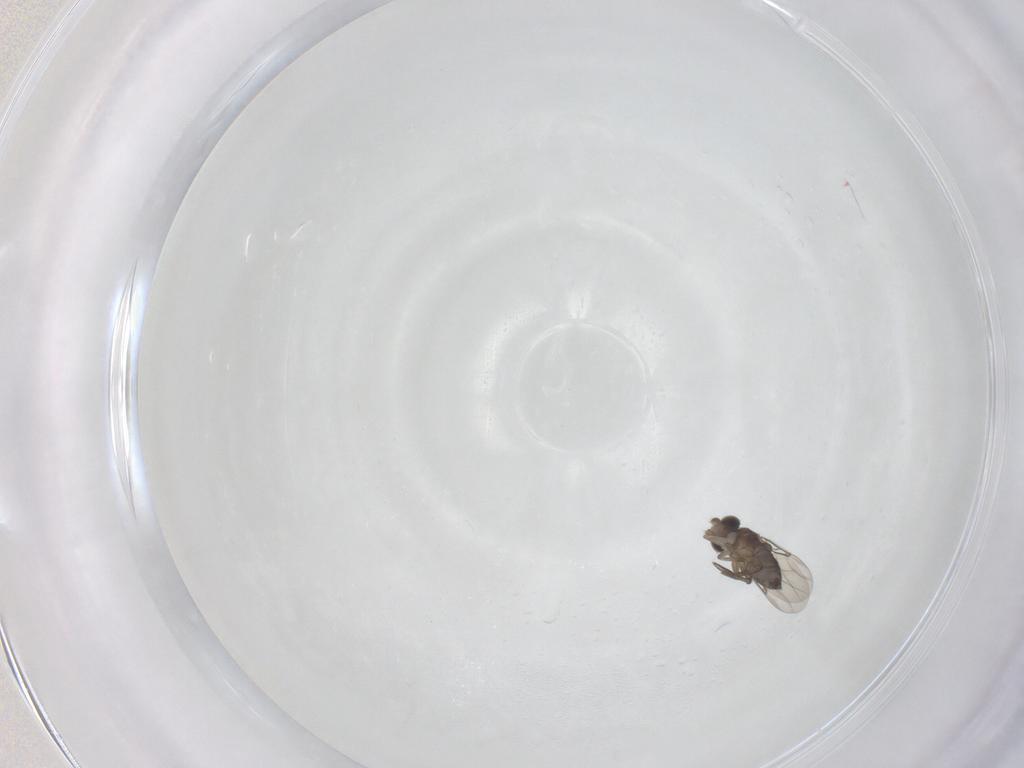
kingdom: Animalia
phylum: Arthropoda
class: Insecta
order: Diptera
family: Phoridae
